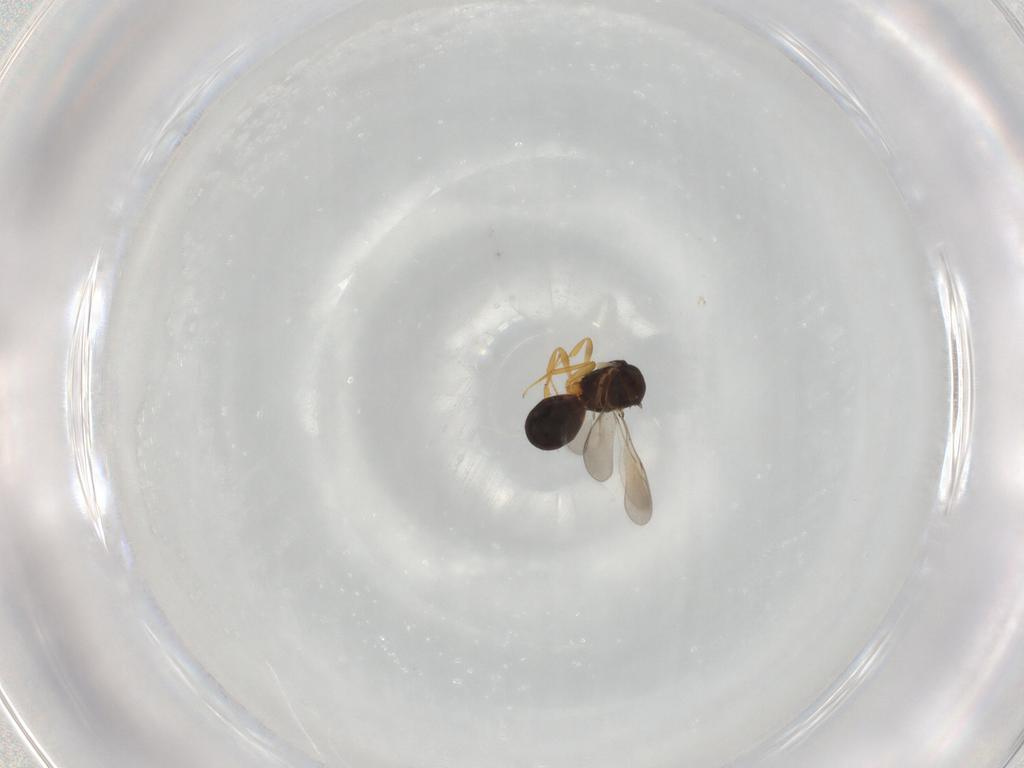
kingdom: Animalia
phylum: Arthropoda
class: Insecta
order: Hymenoptera
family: Scelionidae
